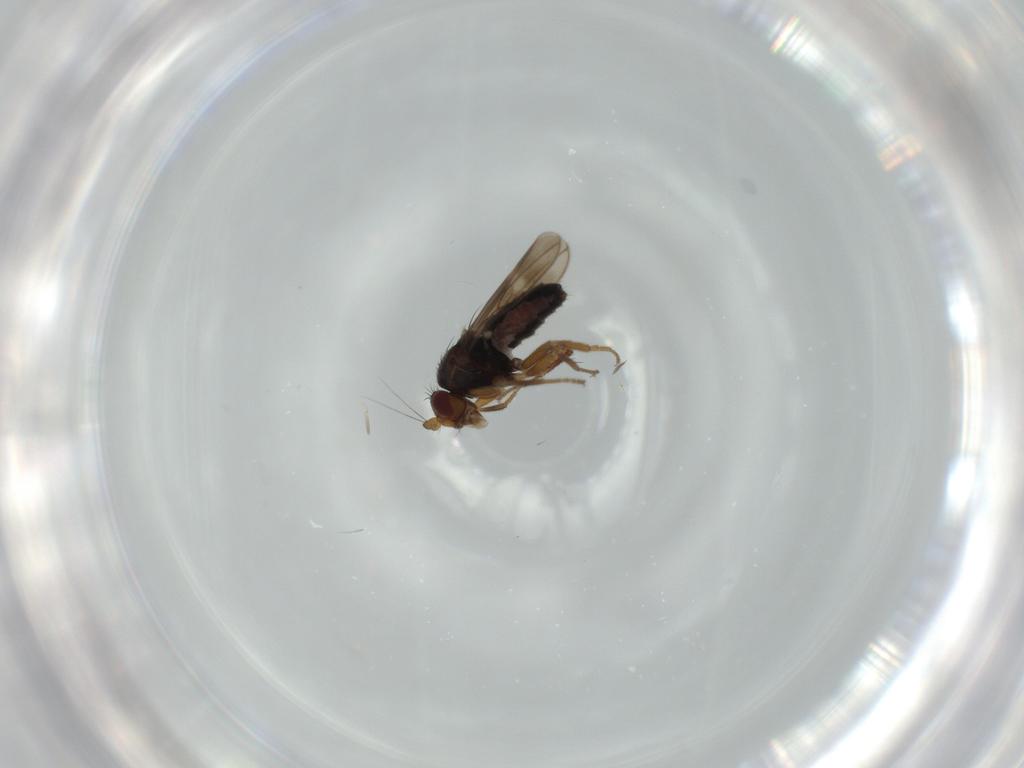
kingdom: Animalia
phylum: Arthropoda
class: Insecta
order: Diptera
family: Sphaeroceridae
